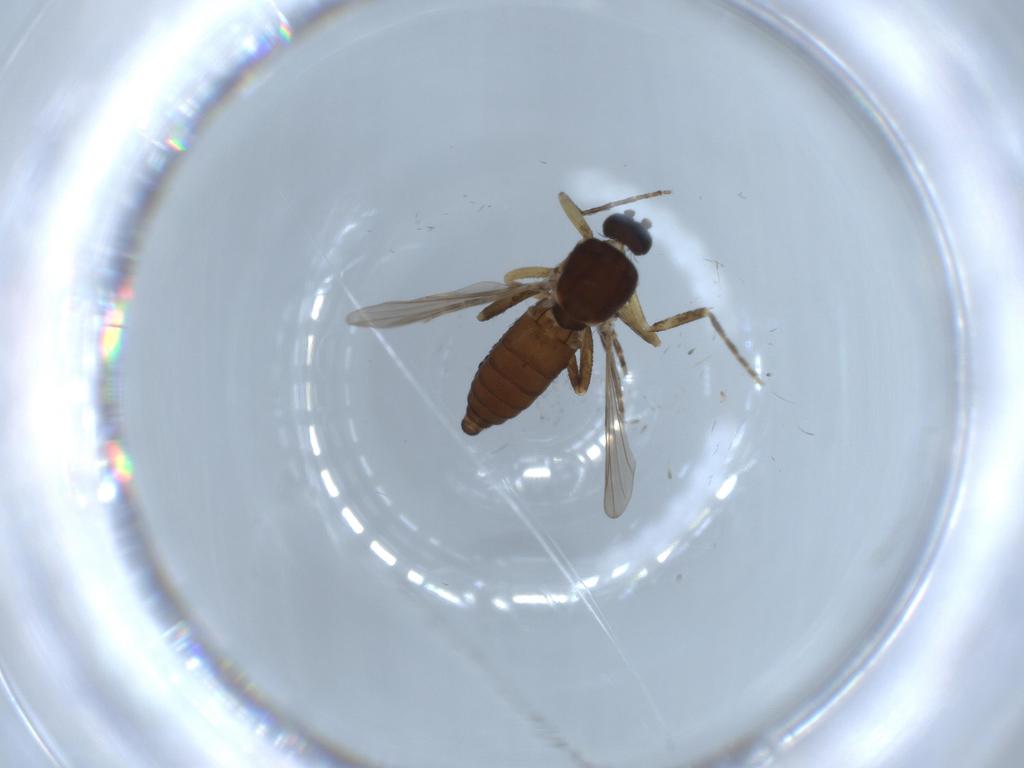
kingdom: Animalia
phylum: Arthropoda
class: Insecta
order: Diptera
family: Ceratopogonidae
